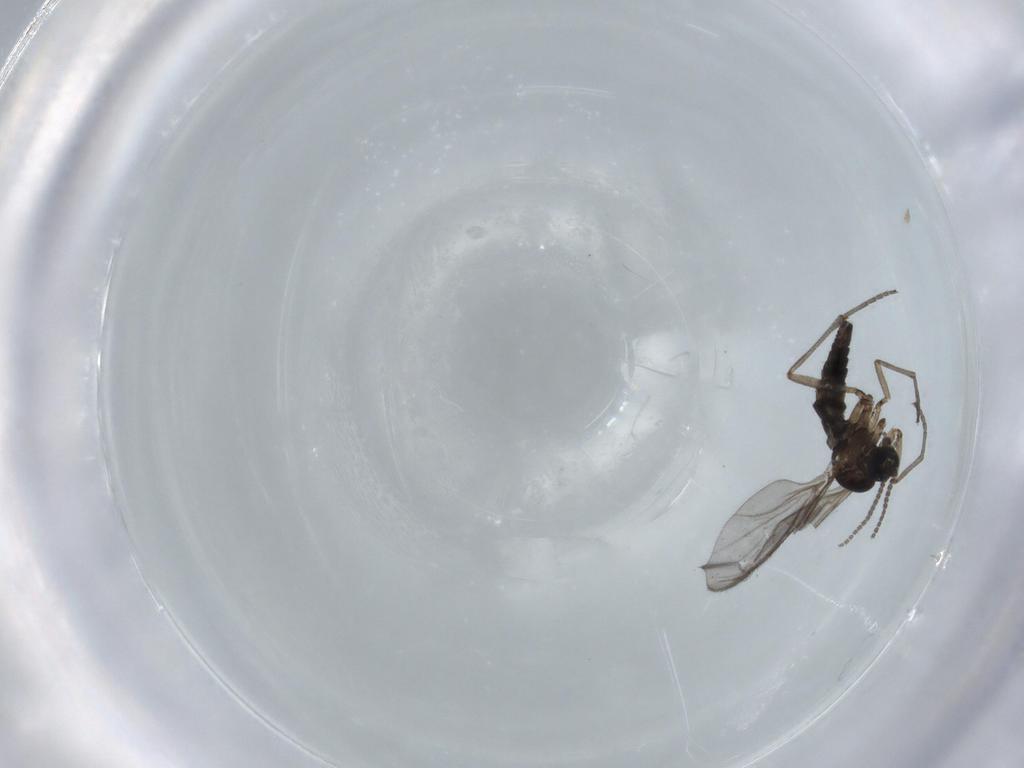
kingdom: Animalia
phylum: Arthropoda
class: Insecta
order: Diptera
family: Sciaridae
